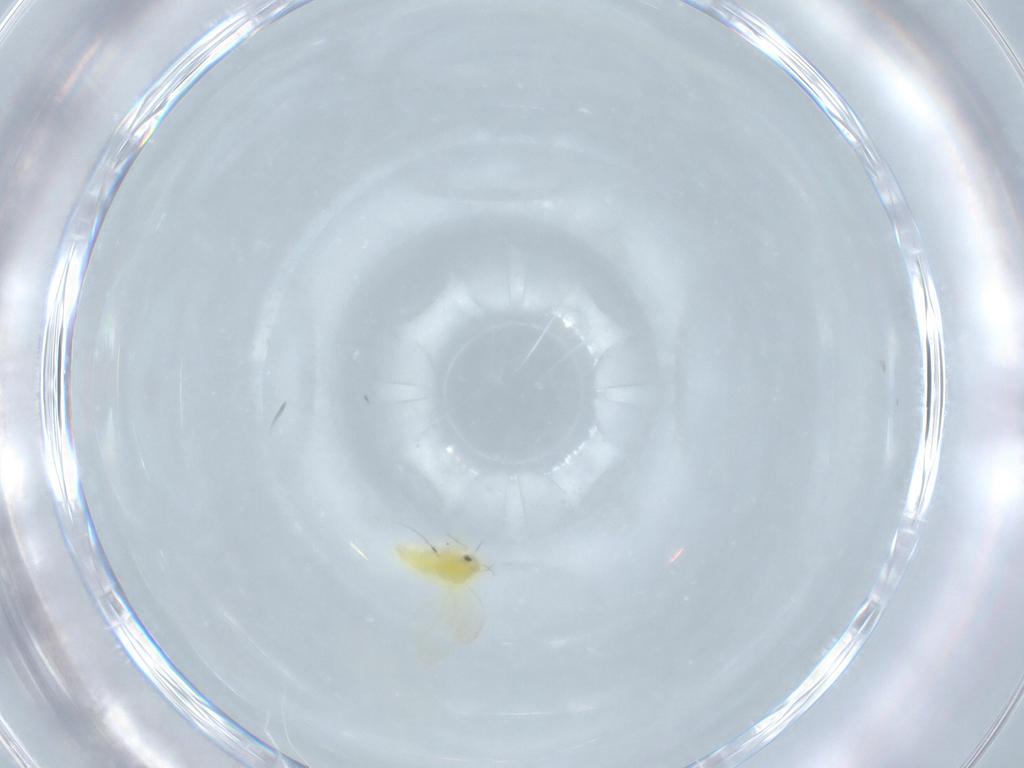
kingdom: Animalia
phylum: Arthropoda
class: Insecta
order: Hemiptera
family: Aleyrodidae
